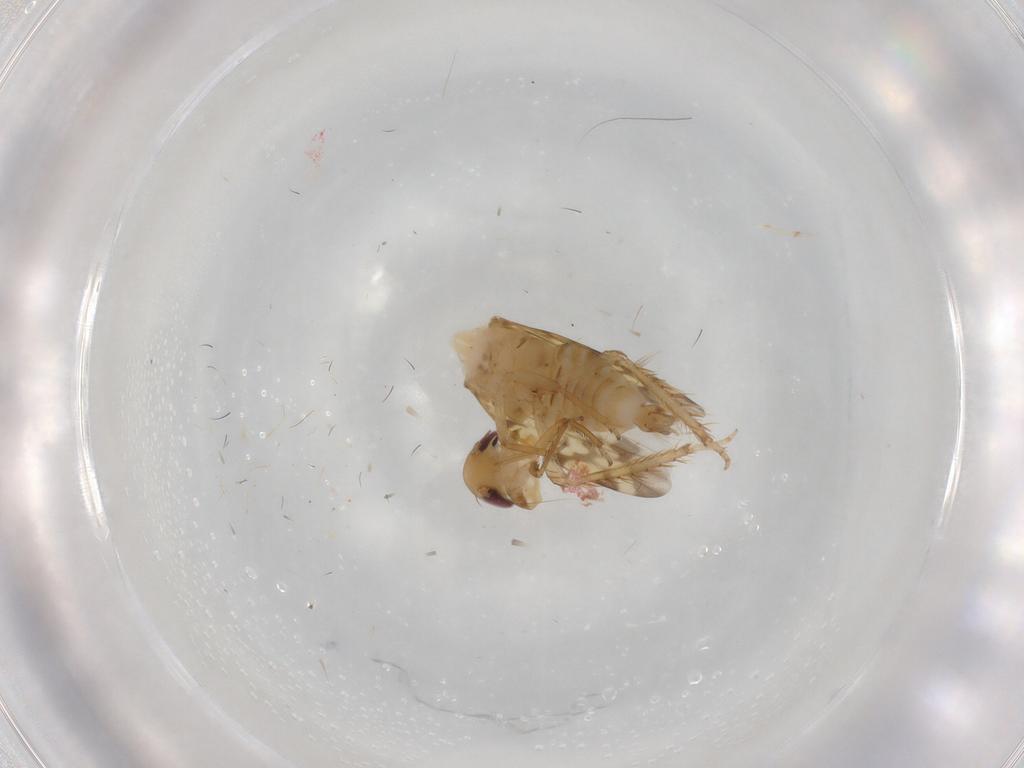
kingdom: Animalia
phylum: Arthropoda
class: Insecta
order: Hemiptera
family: Cicadellidae
